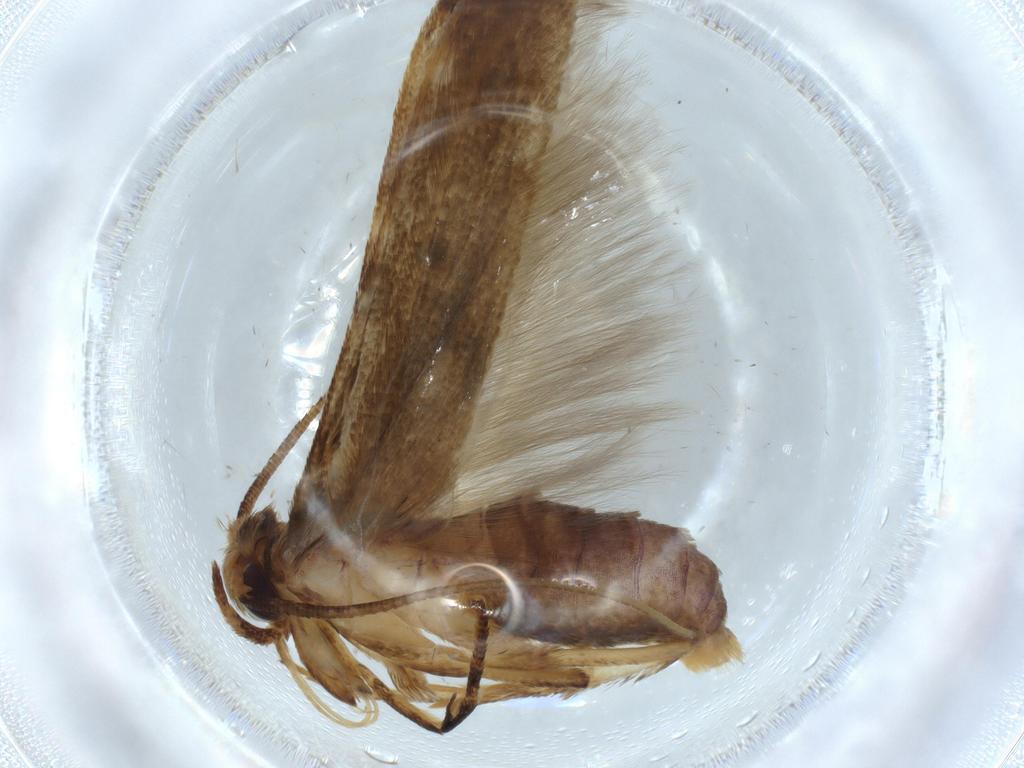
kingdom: Animalia
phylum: Arthropoda
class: Insecta
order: Lepidoptera
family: Blastobasidae
